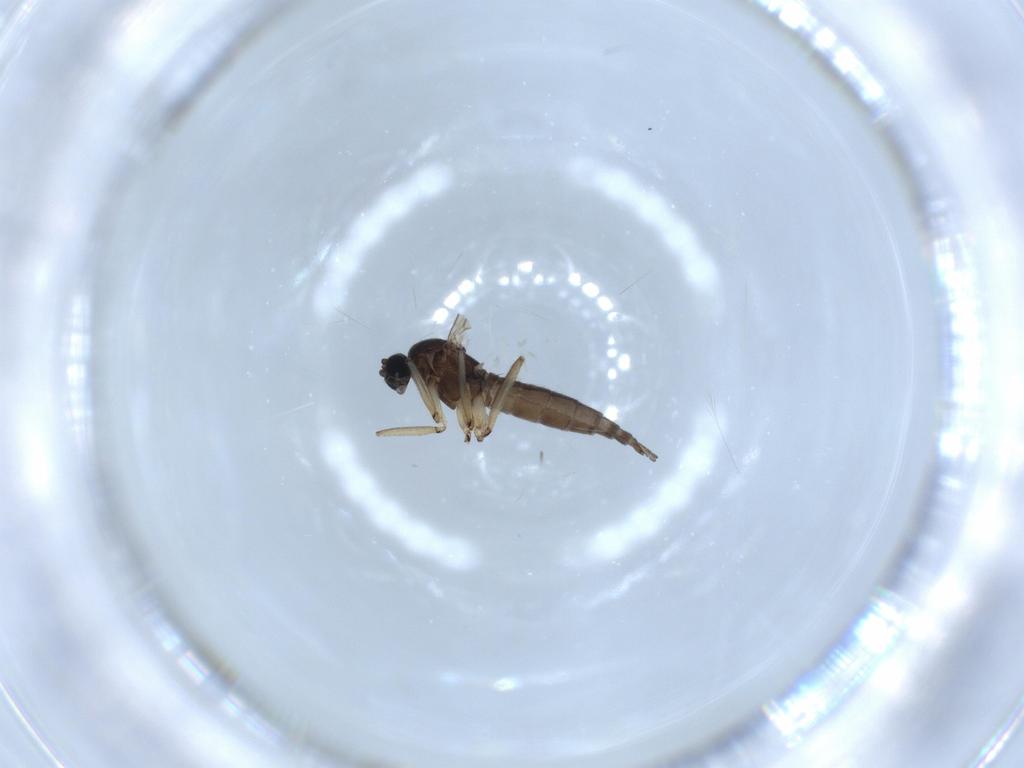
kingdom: Animalia
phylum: Arthropoda
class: Insecta
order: Diptera
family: Sciaridae
